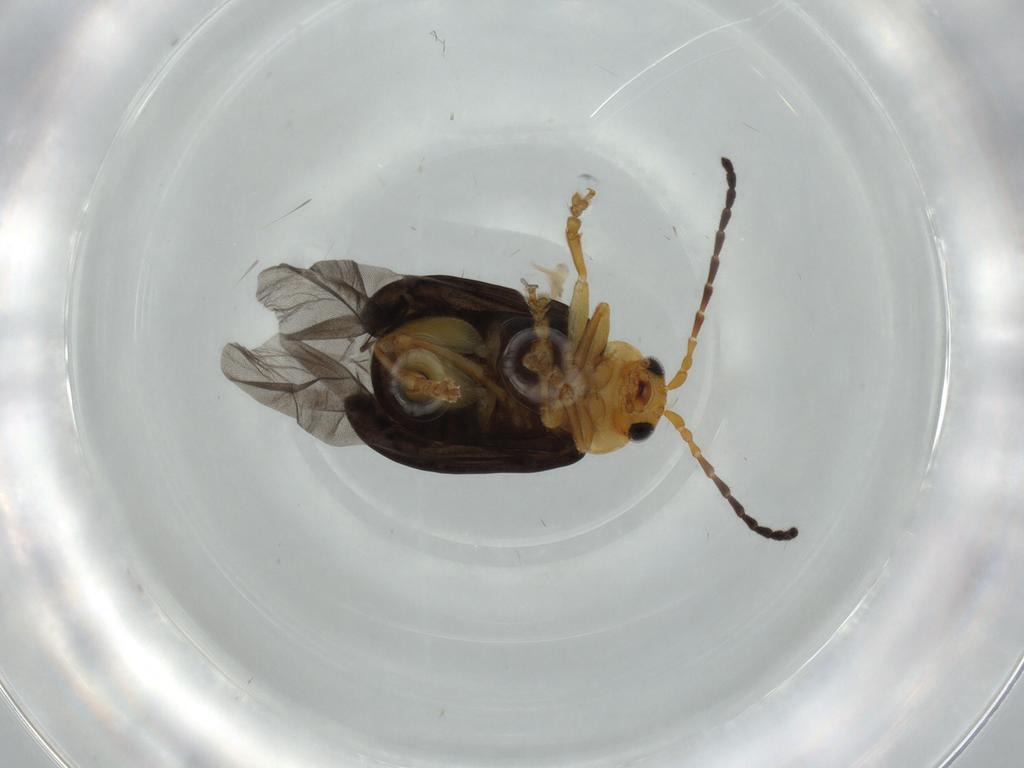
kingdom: Animalia
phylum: Arthropoda
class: Insecta
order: Coleoptera
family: Chrysomelidae
